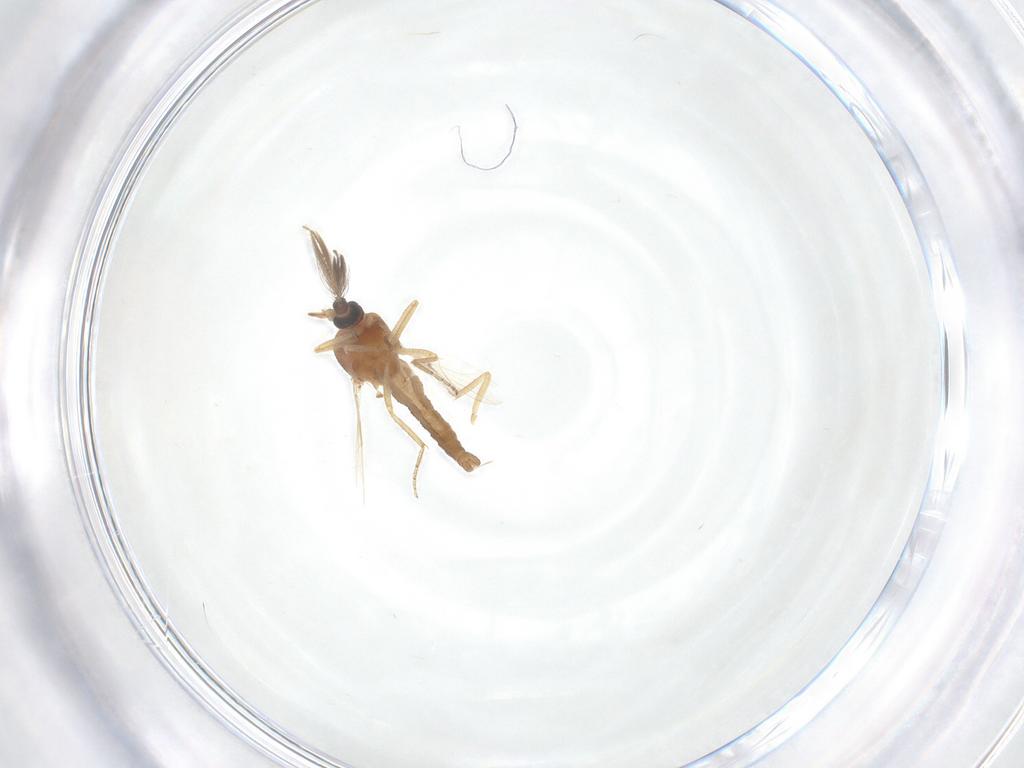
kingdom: Animalia
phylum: Arthropoda
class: Insecta
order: Diptera
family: Ceratopogonidae
